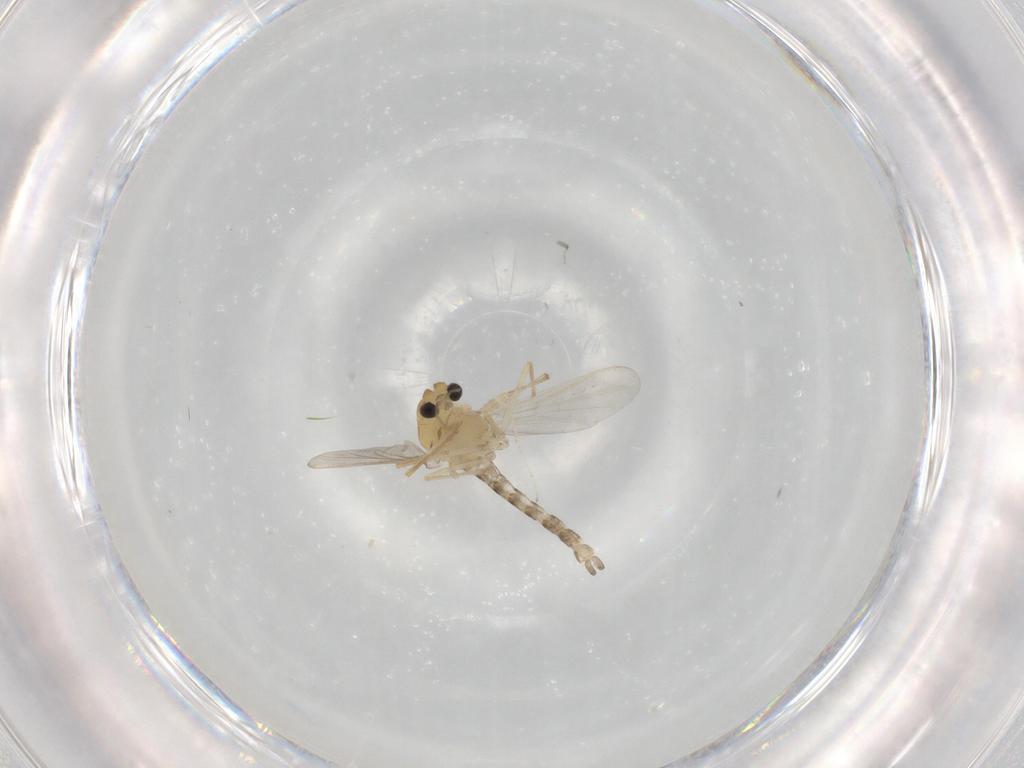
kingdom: Animalia
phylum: Arthropoda
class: Insecta
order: Diptera
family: Chironomidae
